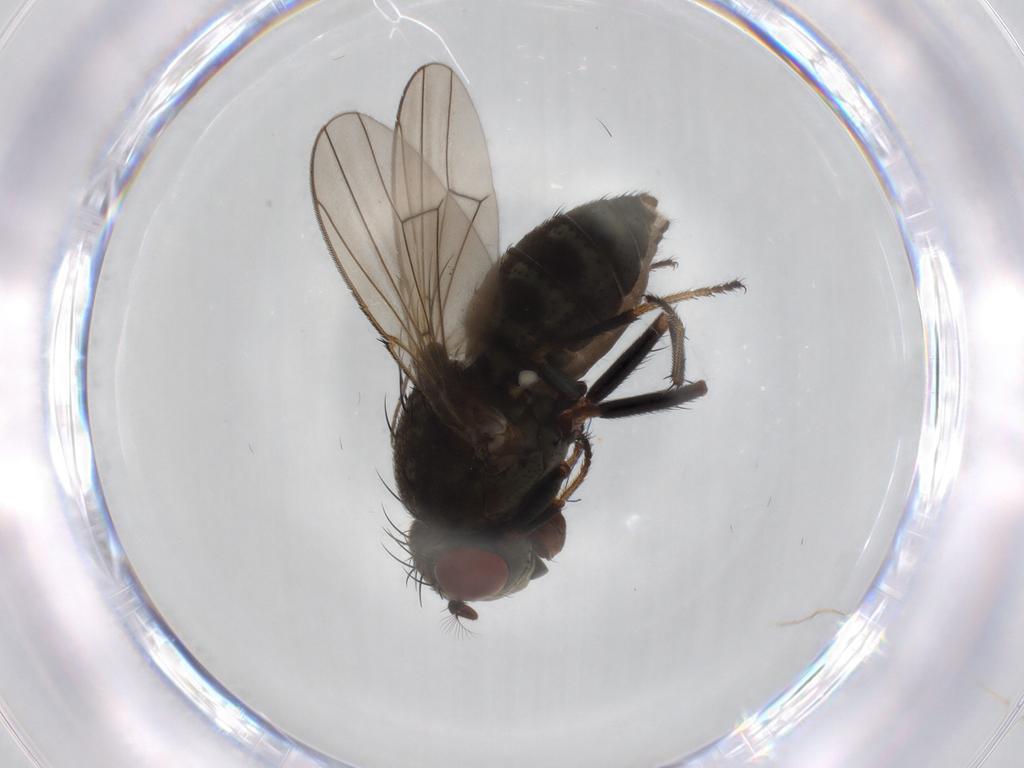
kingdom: Animalia
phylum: Arthropoda
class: Insecta
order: Diptera
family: Ephydridae
